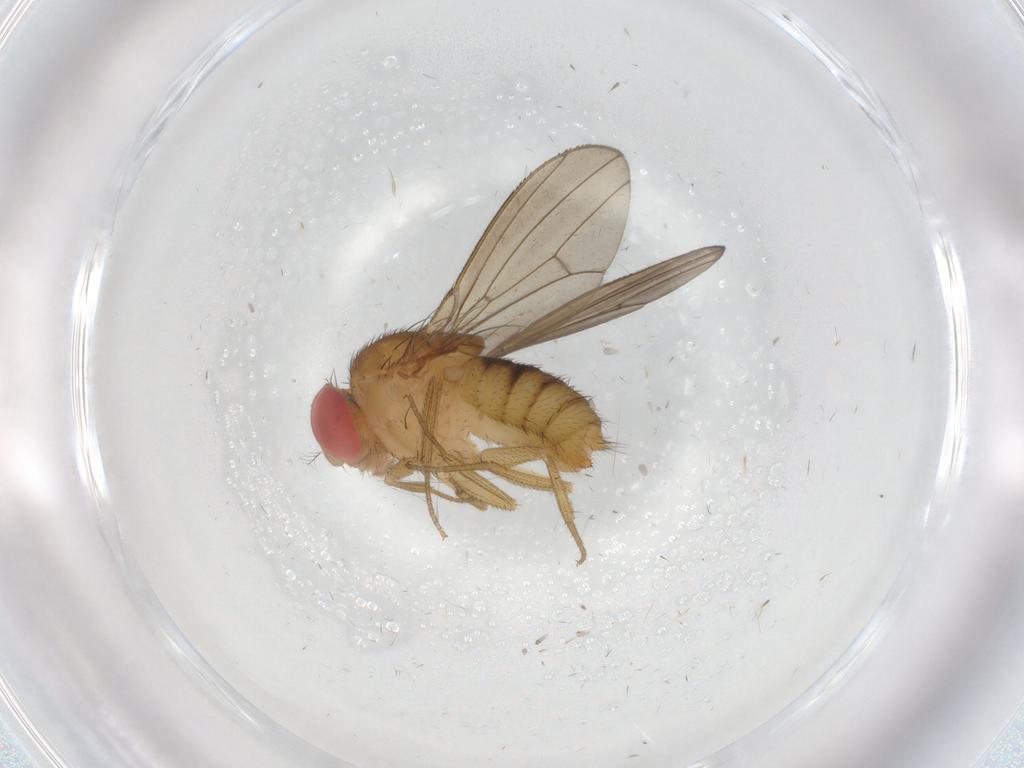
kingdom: Animalia
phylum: Arthropoda
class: Insecta
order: Diptera
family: Drosophilidae
